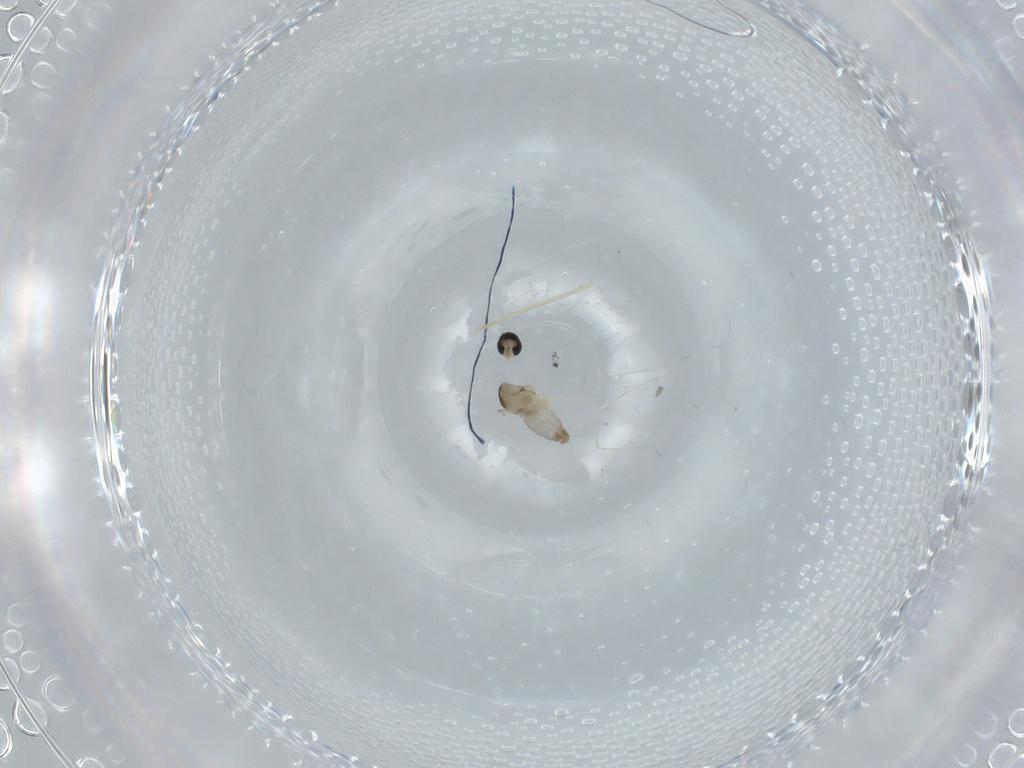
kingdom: Animalia
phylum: Arthropoda
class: Insecta
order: Diptera
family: Cecidomyiidae
